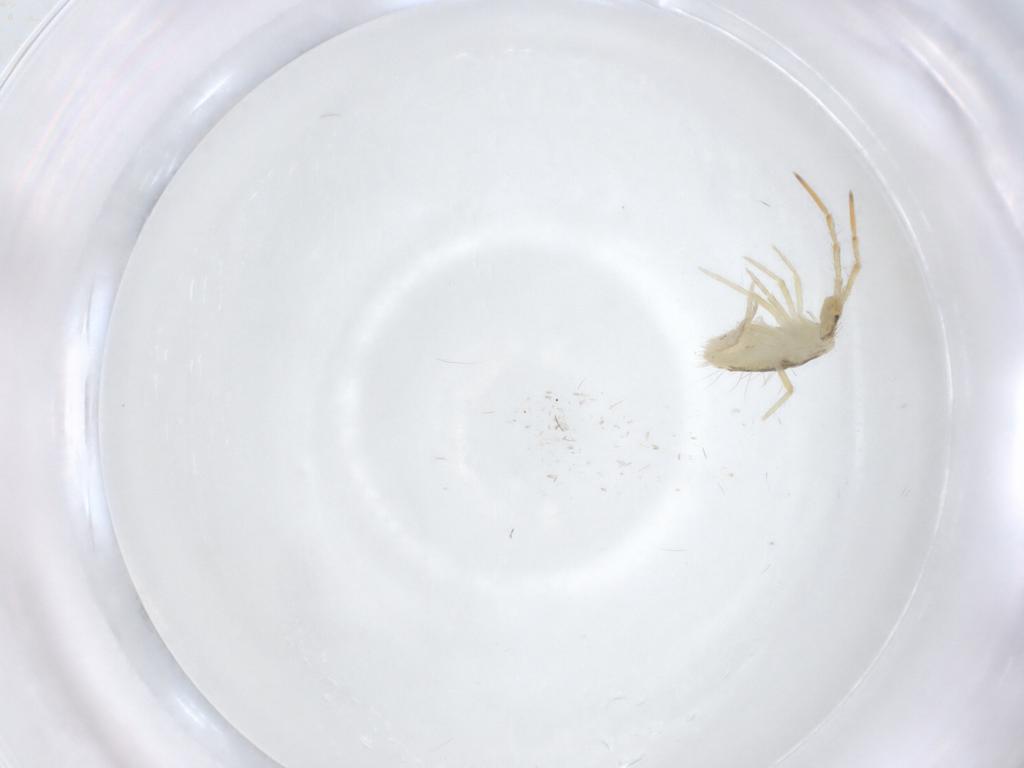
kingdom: Animalia
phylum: Arthropoda
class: Collembola
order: Entomobryomorpha
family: Entomobryidae
